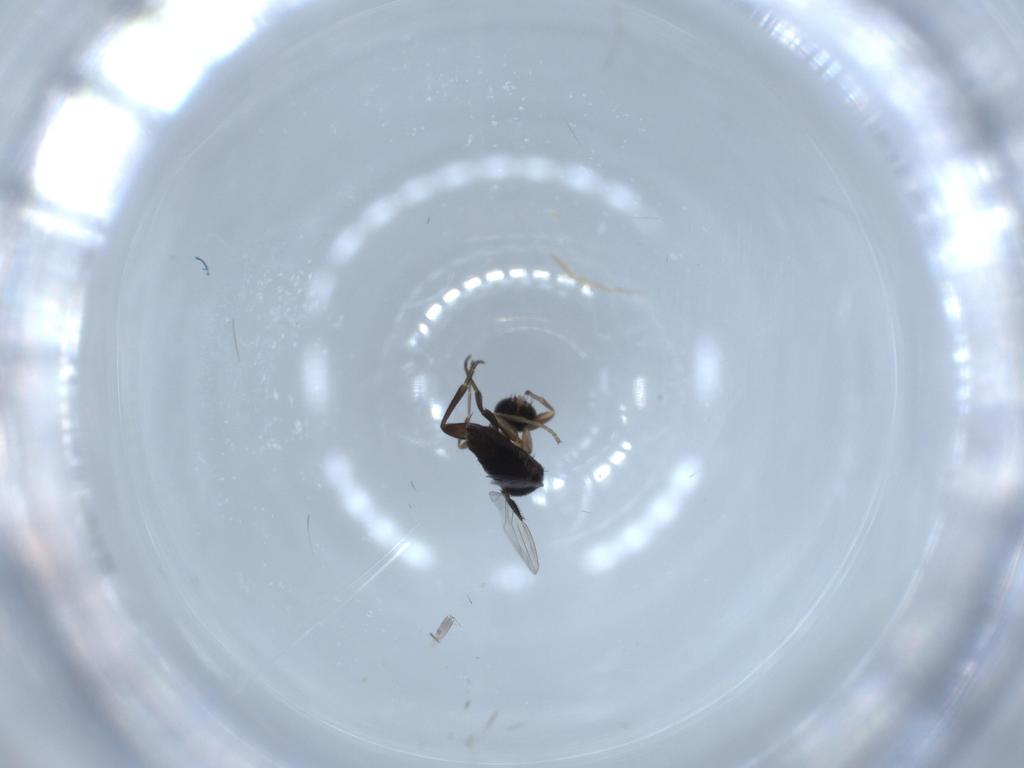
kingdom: Animalia
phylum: Arthropoda
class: Insecta
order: Diptera
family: Phoridae
